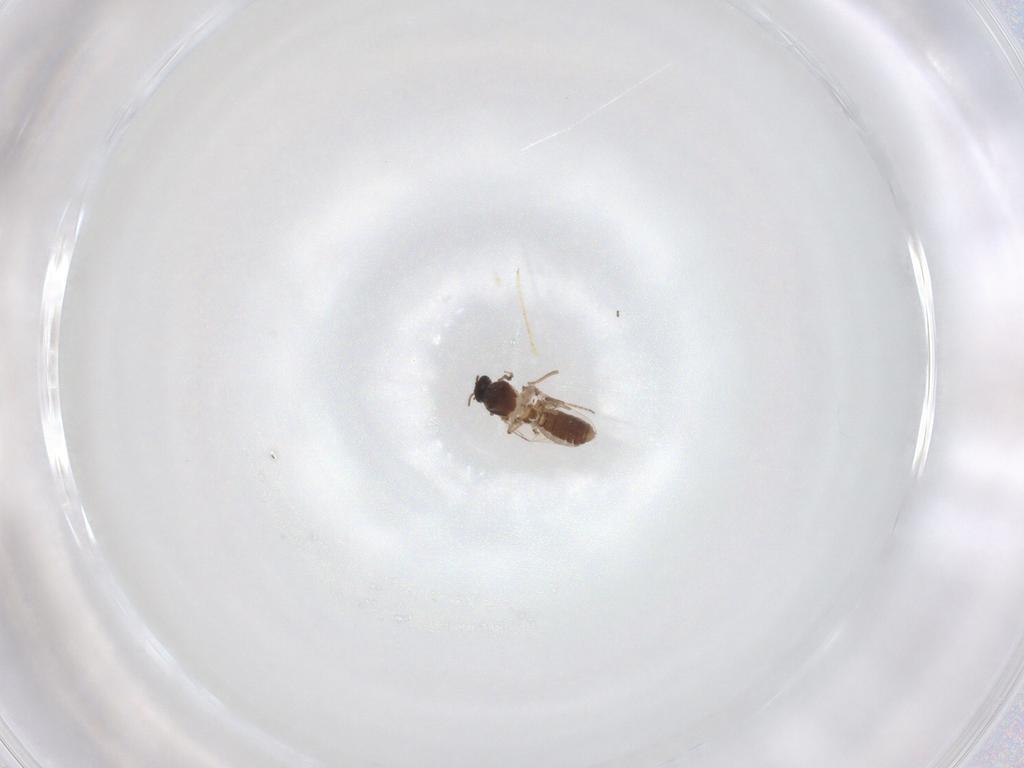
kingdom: Animalia
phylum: Arthropoda
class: Insecta
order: Diptera
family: Ceratopogonidae
